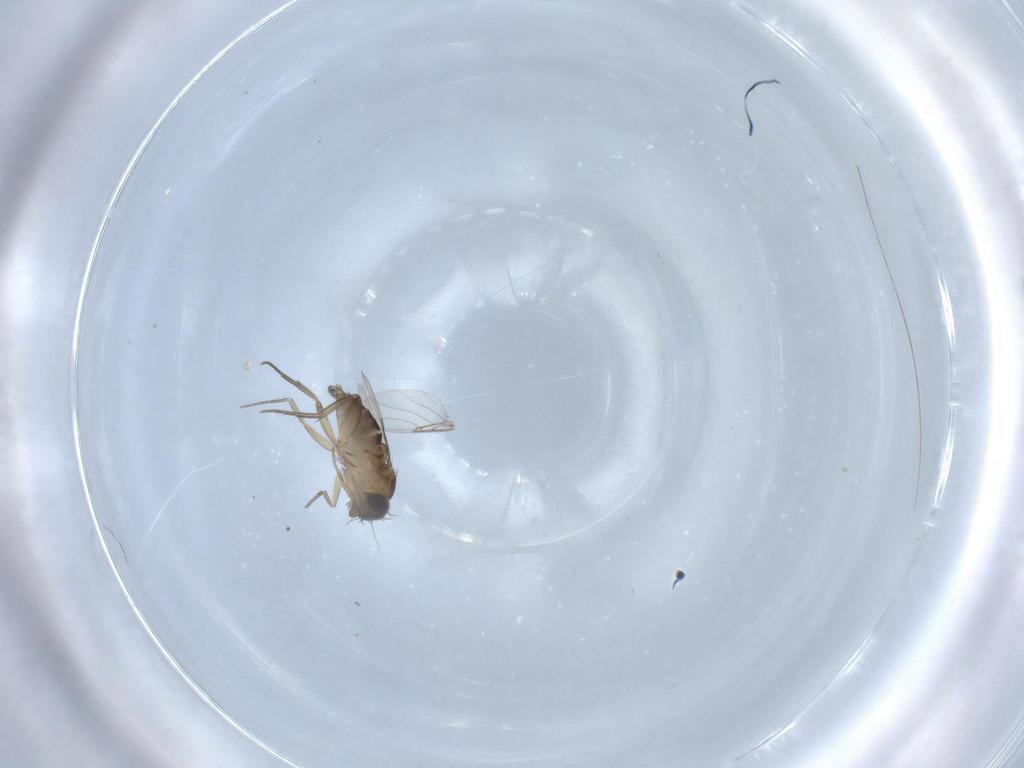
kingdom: Animalia
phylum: Arthropoda
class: Insecta
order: Diptera
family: Phoridae
